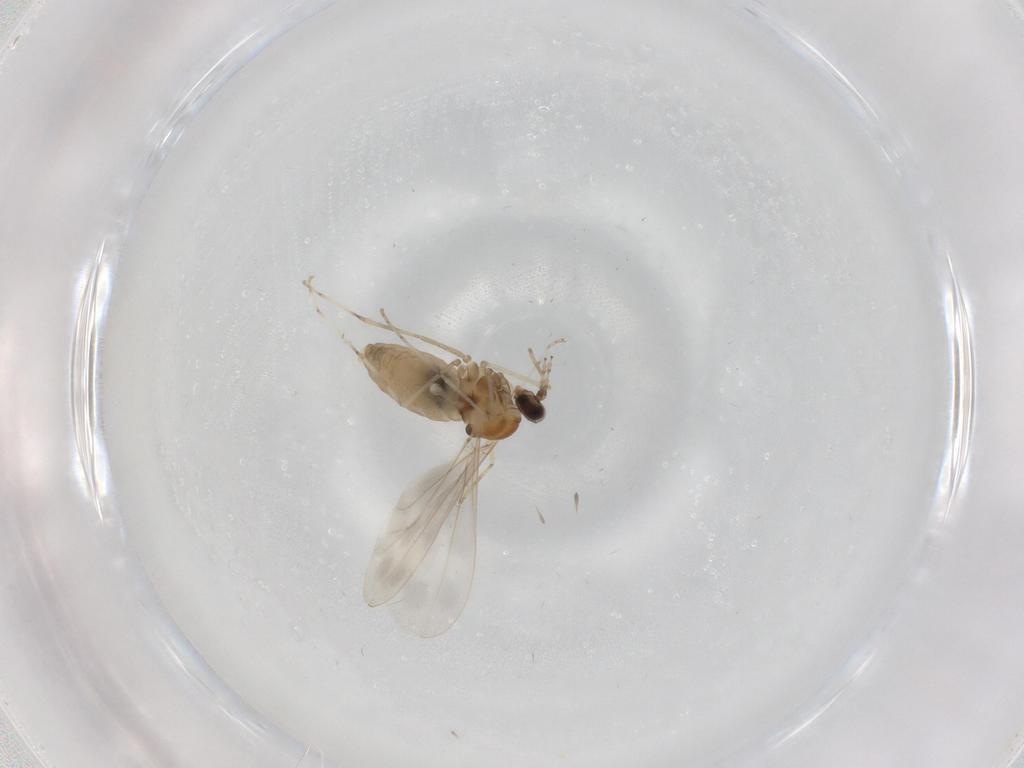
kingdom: Animalia
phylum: Arthropoda
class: Insecta
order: Diptera
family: Cecidomyiidae
